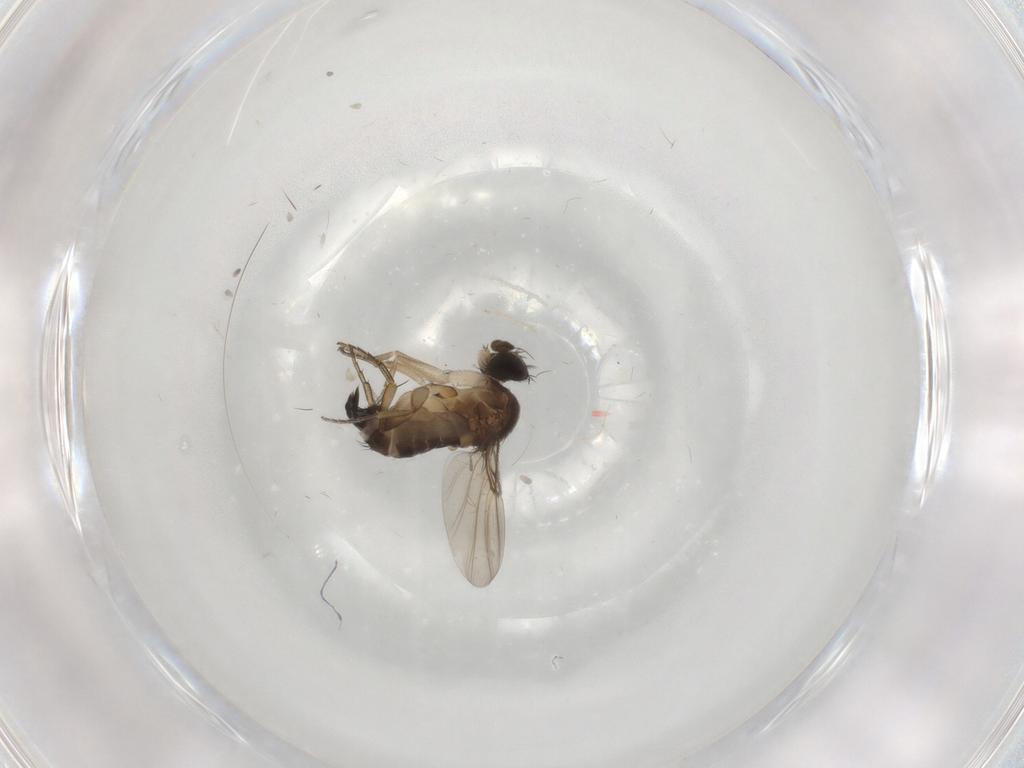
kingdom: Animalia
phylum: Arthropoda
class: Insecta
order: Diptera
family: Phoridae
